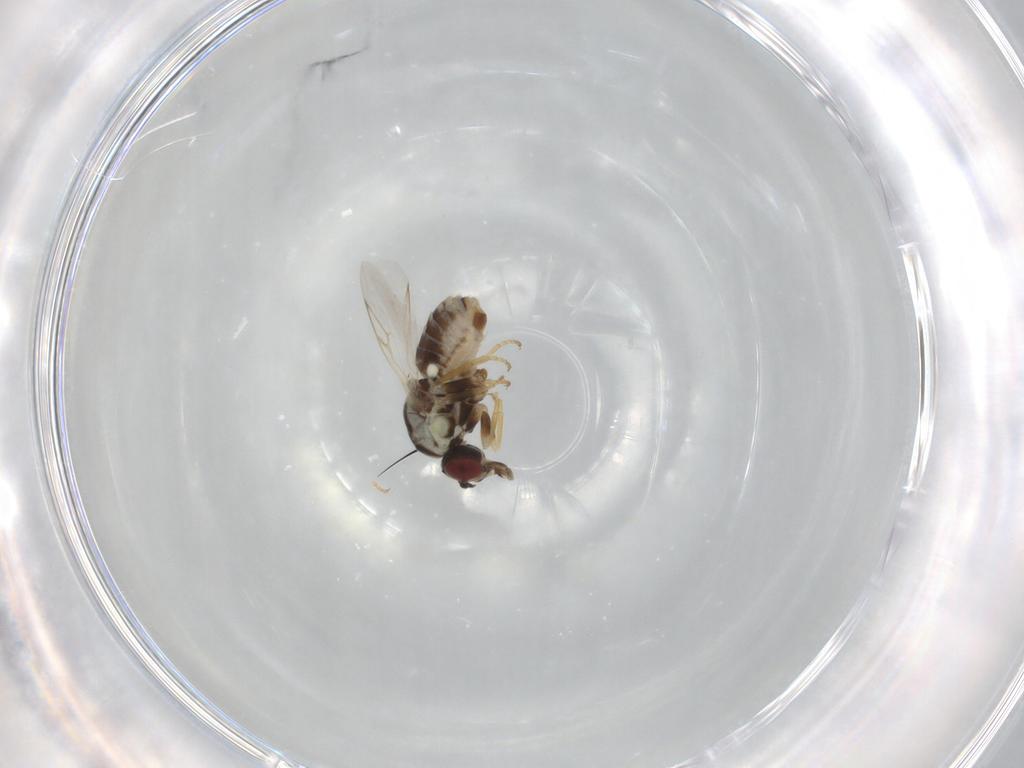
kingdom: Animalia
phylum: Arthropoda
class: Insecta
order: Diptera
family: Bombyliidae
